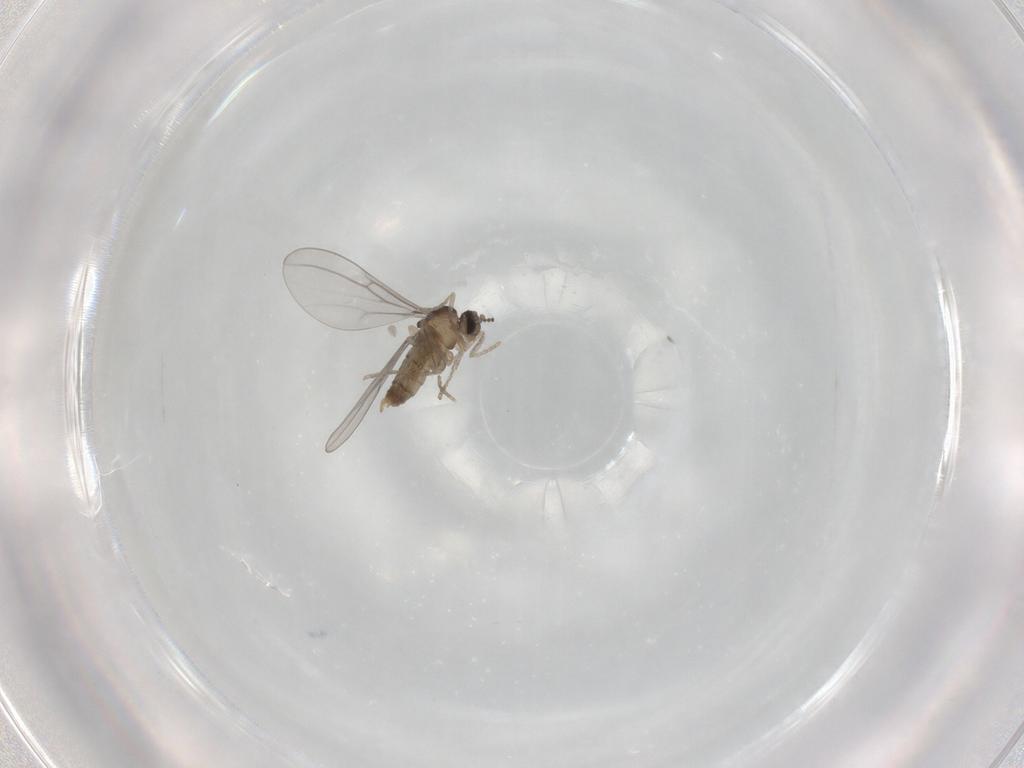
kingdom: Animalia
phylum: Arthropoda
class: Insecta
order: Diptera
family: Cecidomyiidae
